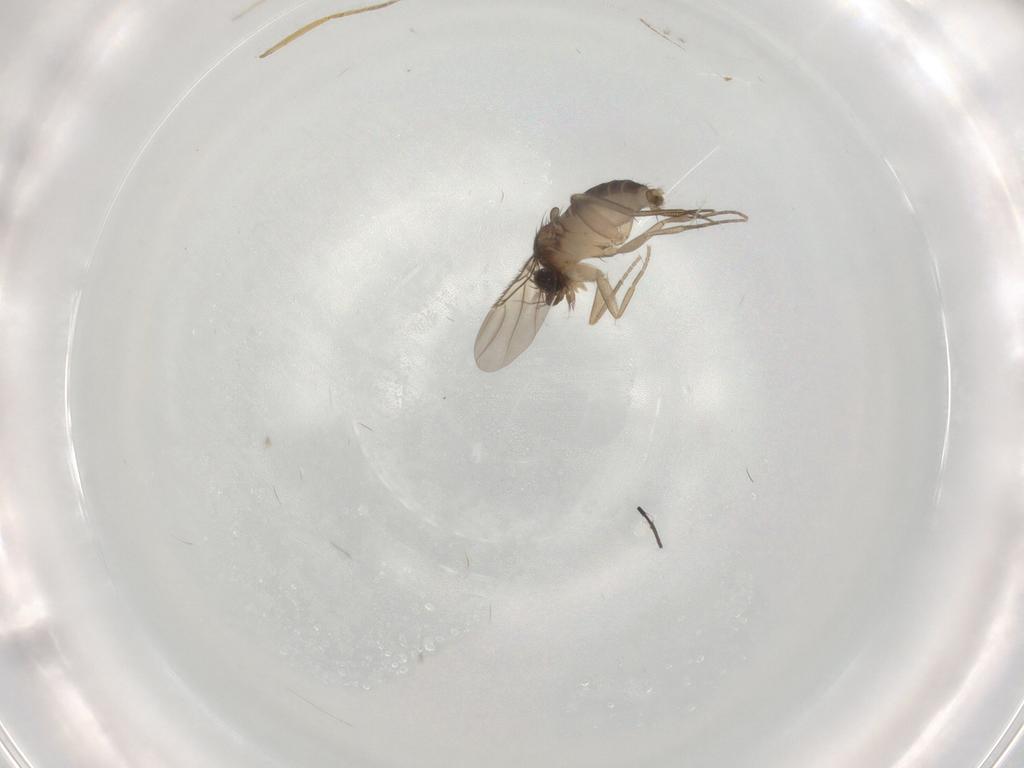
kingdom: Animalia
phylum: Arthropoda
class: Insecta
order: Diptera
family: Phoridae
